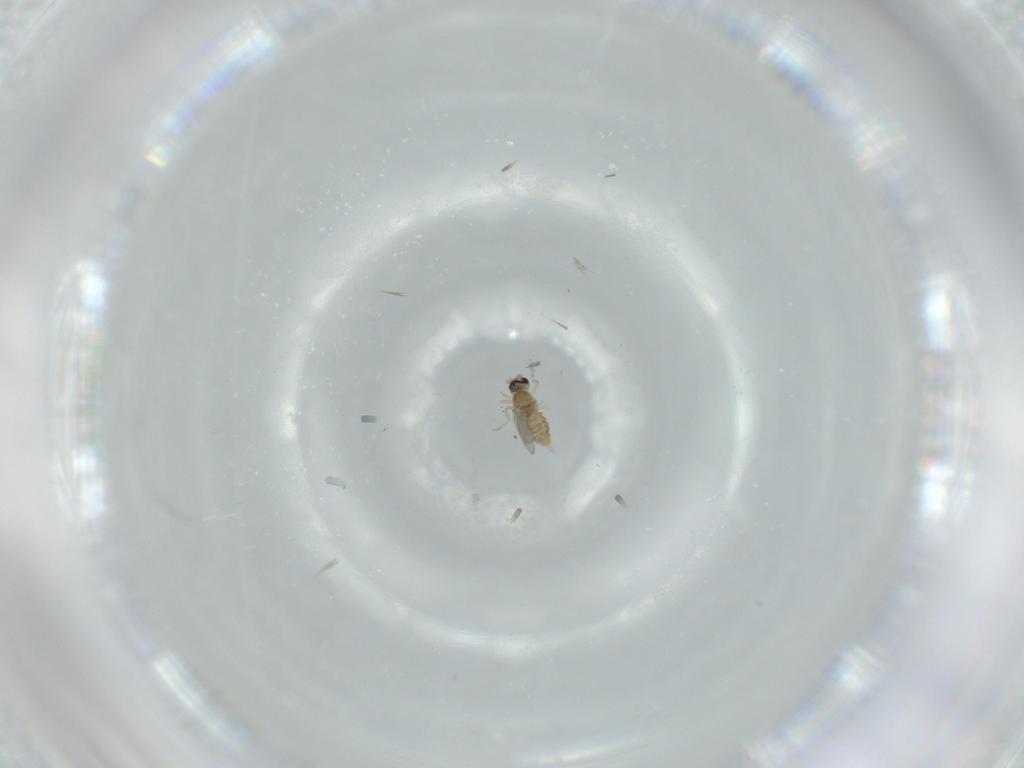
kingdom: Animalia
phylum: Arthropoda
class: Insecta
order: Diptera
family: Cecidomyiidae
